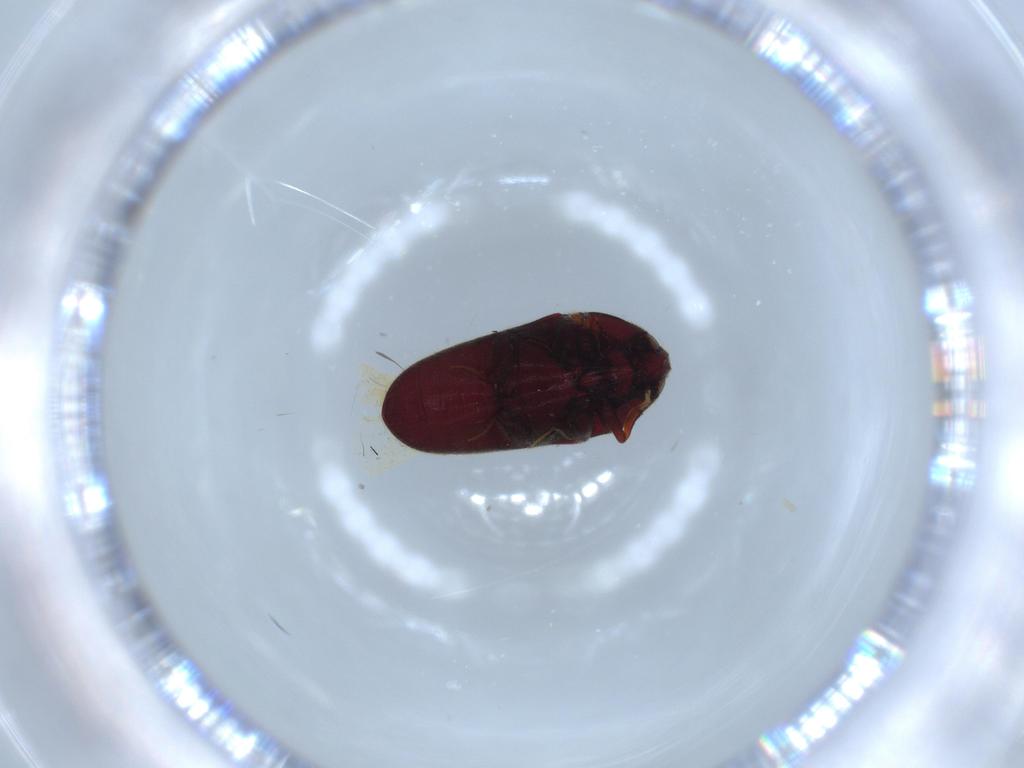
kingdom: Animalia
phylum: Arthropoda
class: Insecta
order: Coleoptera
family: Throscidae
